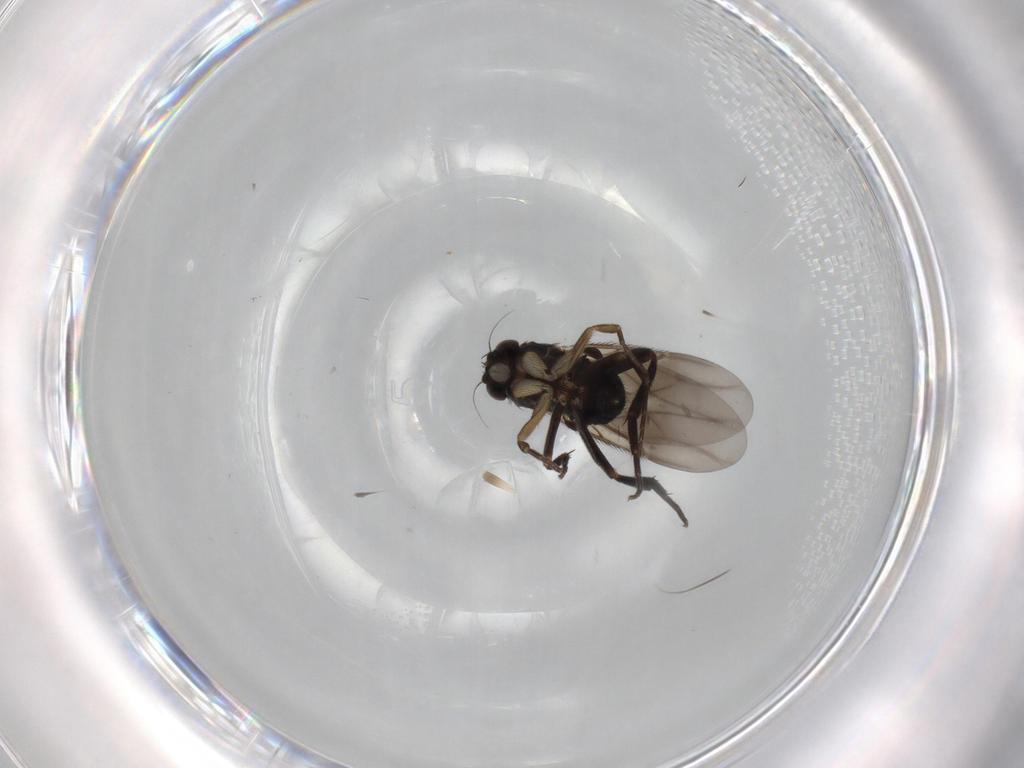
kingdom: Animalia
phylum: Arthropoda
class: Insecta
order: Diptera
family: Phoridae
